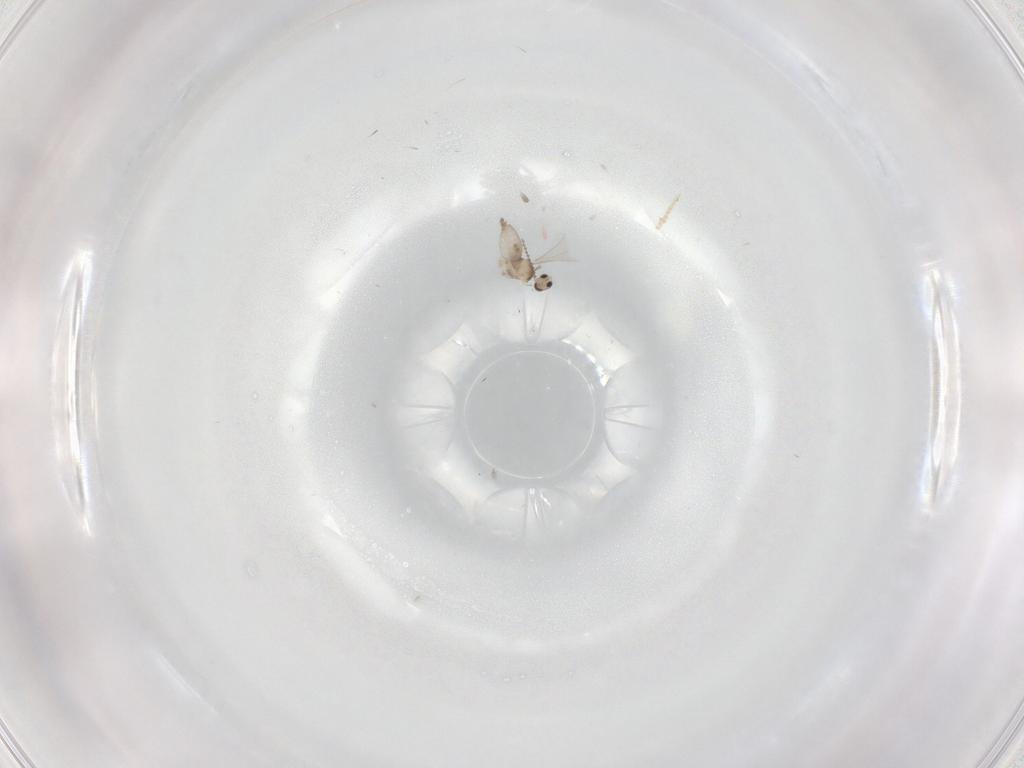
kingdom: Animalia
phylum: Arthropoda
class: Insecta
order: Diptera
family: Cecidomyiidae
